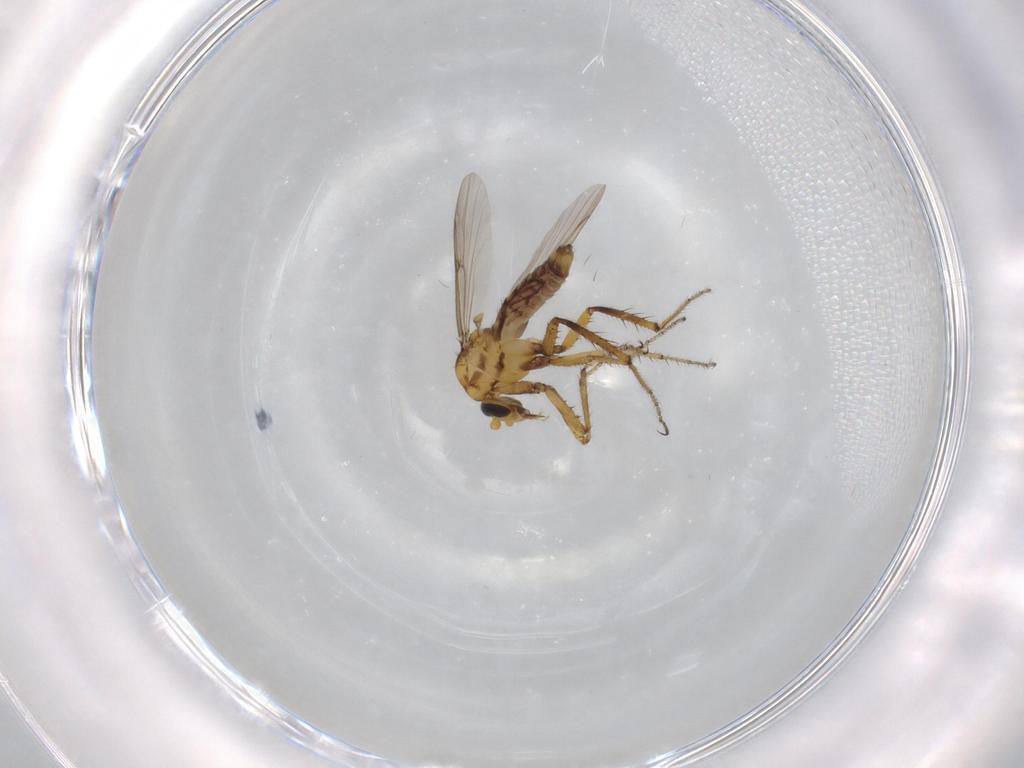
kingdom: Animalia
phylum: Arthropoda
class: Insecta
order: Diptera
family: Ceratopogonidae
